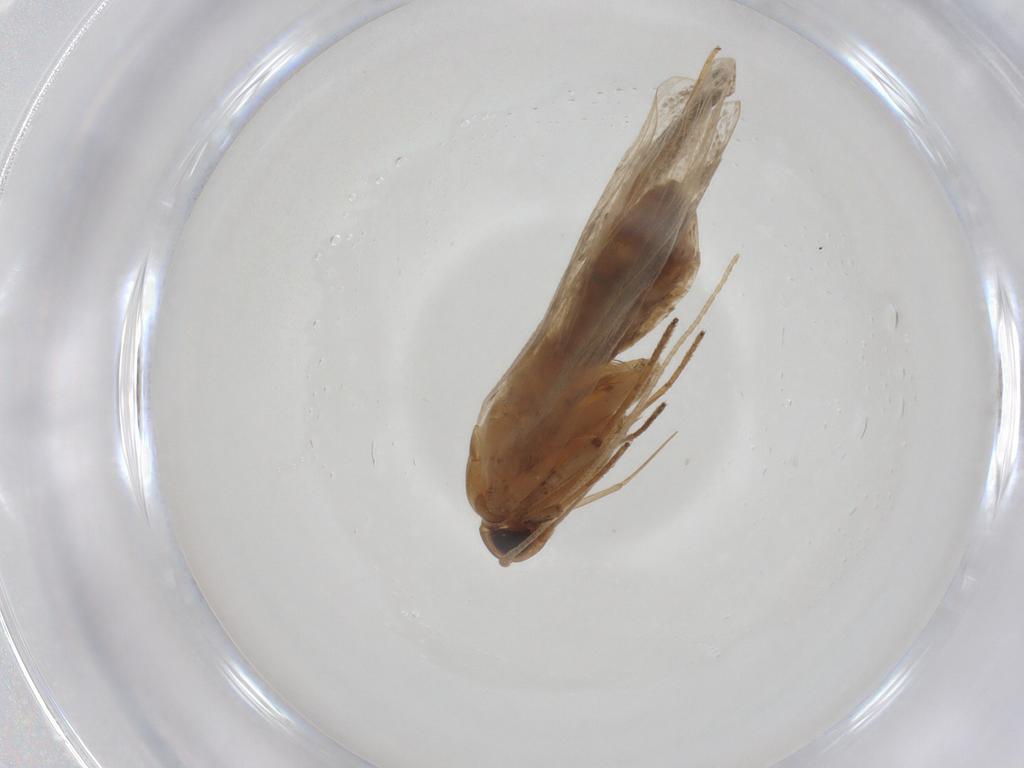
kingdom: Animalia
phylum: Arthropoda
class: Insecta
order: Lepidoptera
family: Lecithoceridae
